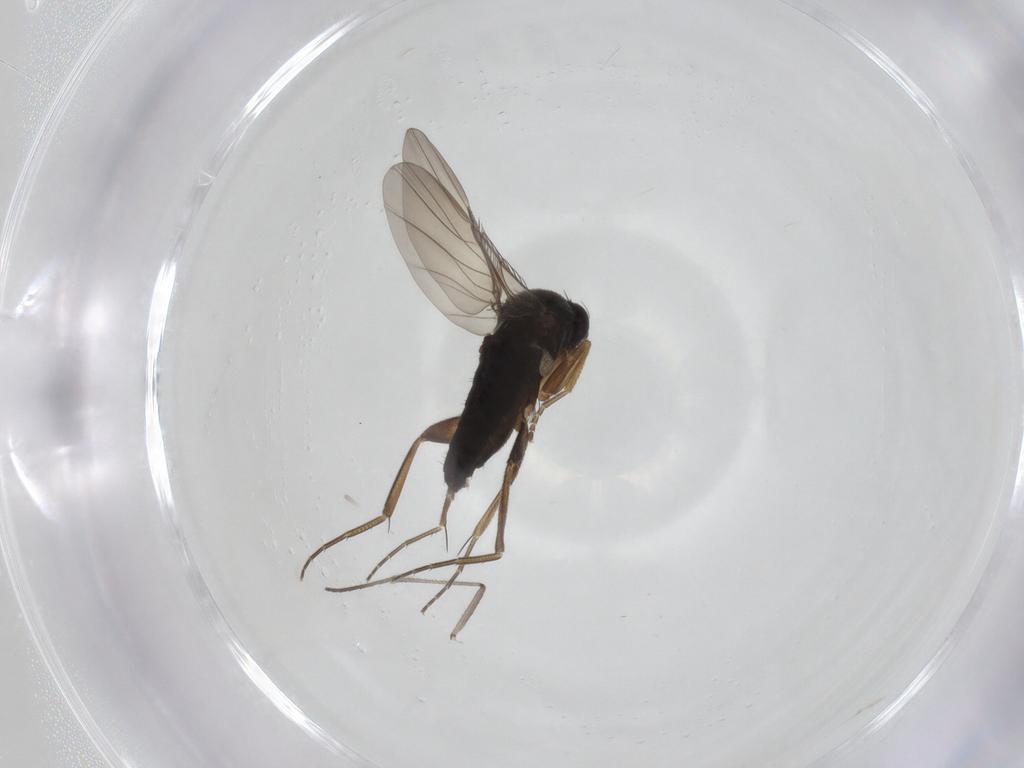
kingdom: Animalia
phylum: Arthropoda
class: Insecta
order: Diptera
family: Phoridae
